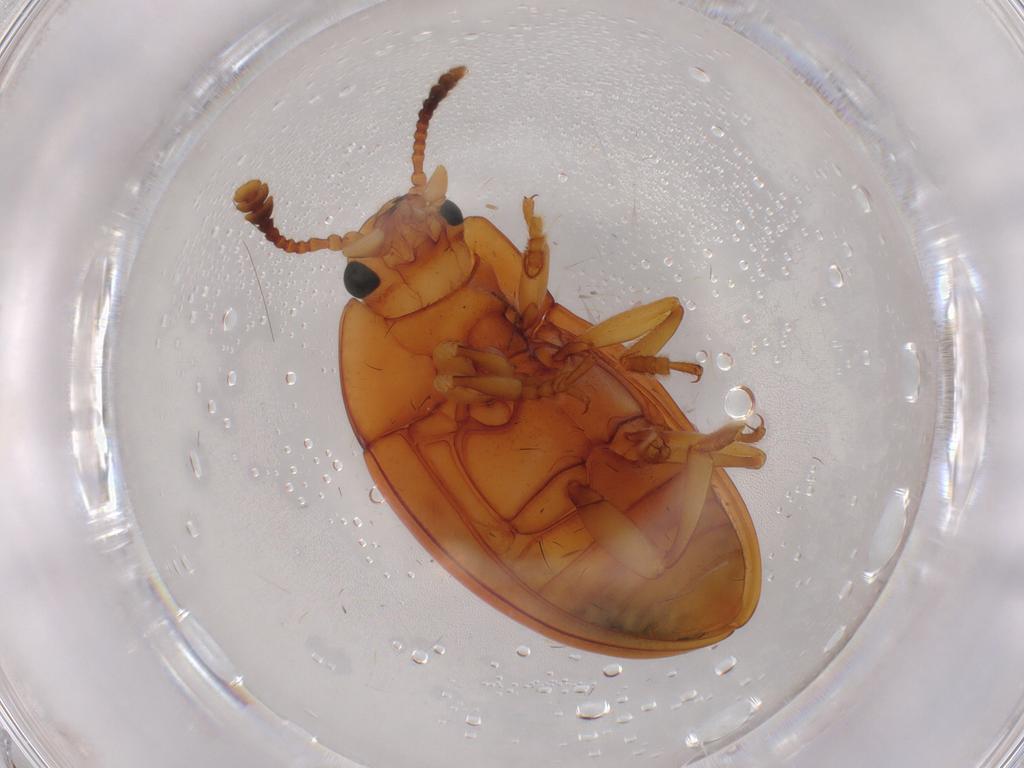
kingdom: Animalia
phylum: Arthropoda
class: Insecta
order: Coleoptera
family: Erotylidae
